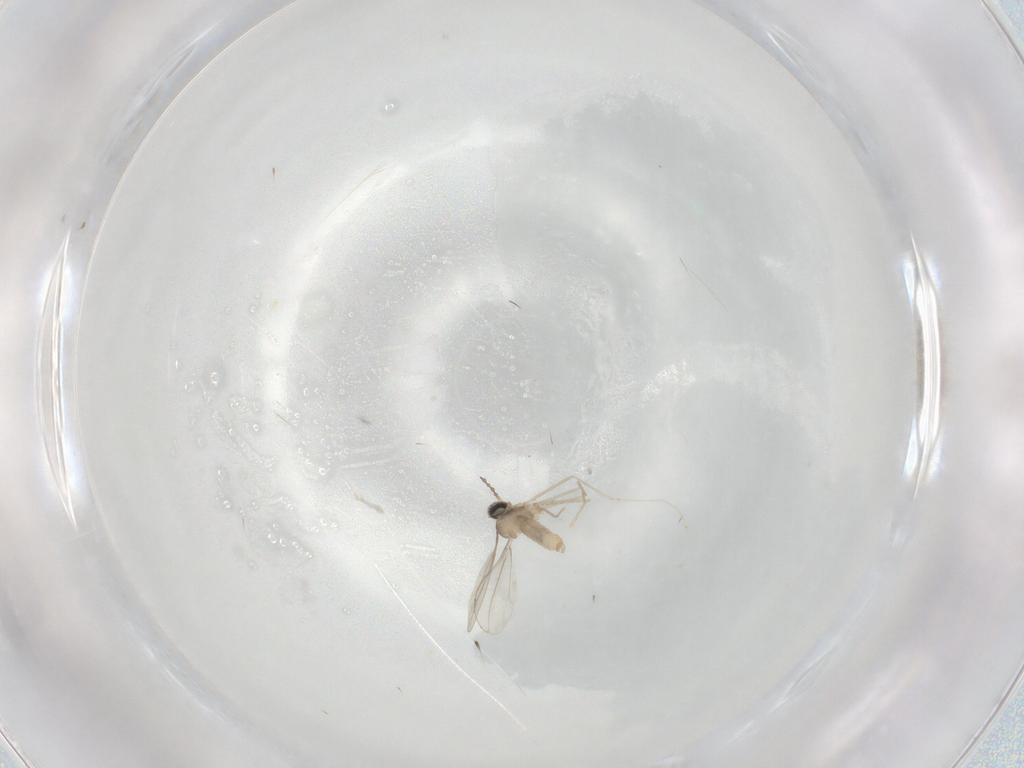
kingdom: Animalia
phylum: Arthropoda
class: Insecta
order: Diptera
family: Cecidomyiidae
